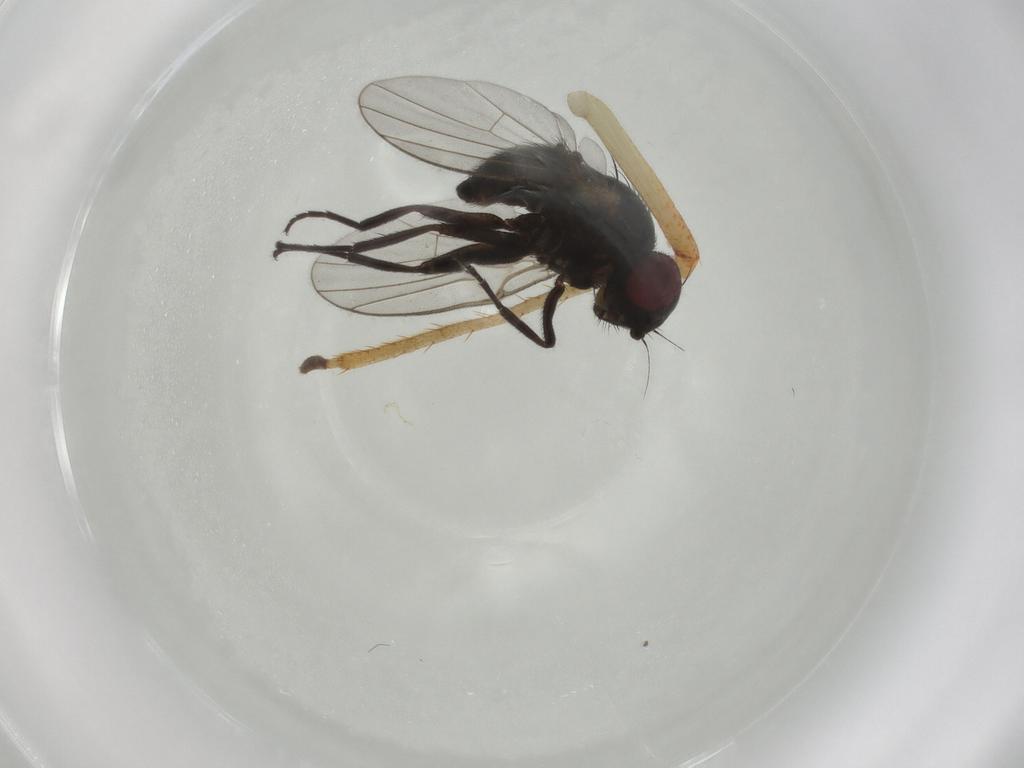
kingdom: Animalia
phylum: Arthropoda
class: Insecta
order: Diptera
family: Agromyzidae
